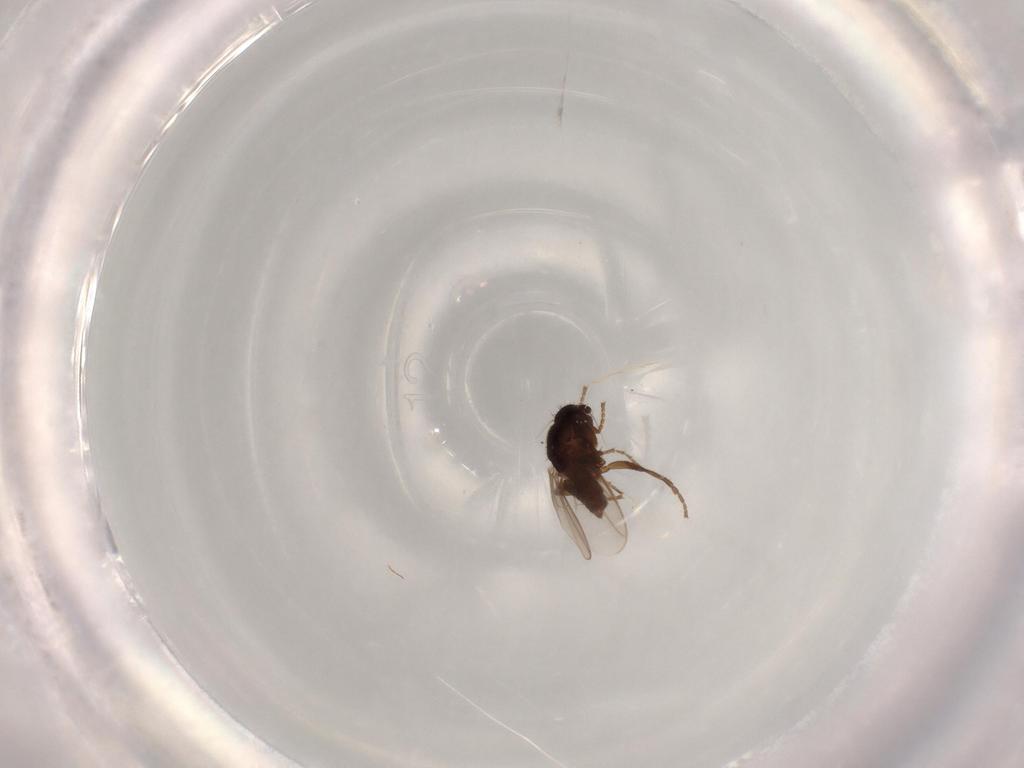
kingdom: Animalia
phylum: Arthropoda
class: Insecta
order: Diptera
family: Sphaeroceridae
